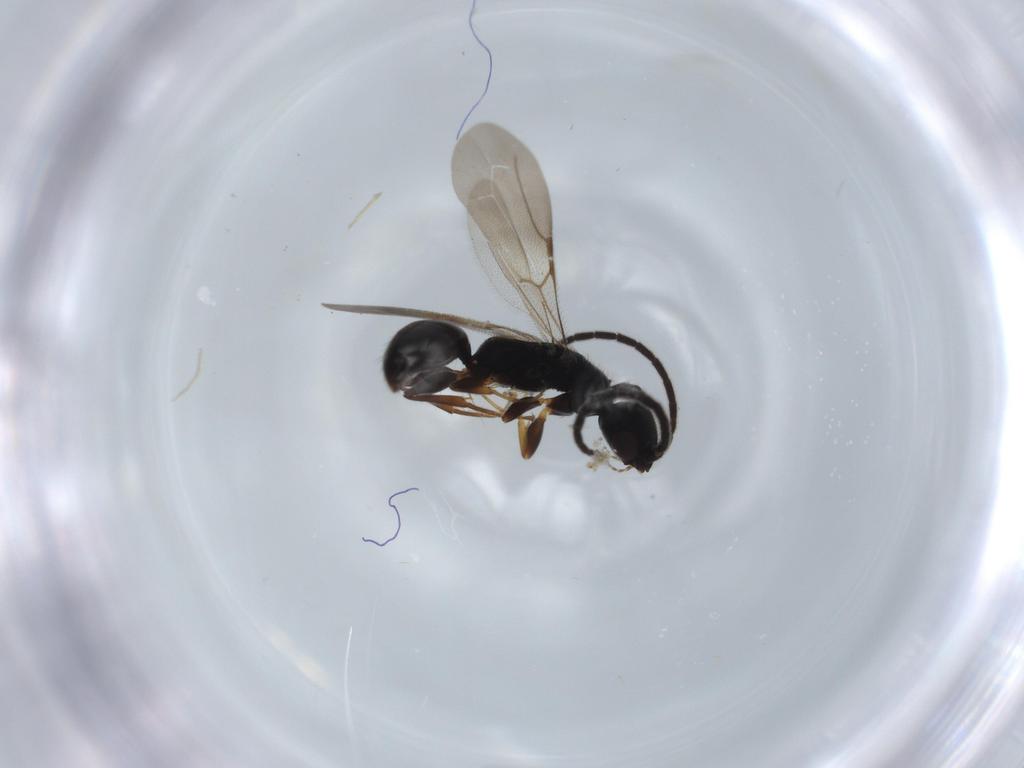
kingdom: Animalia
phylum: Arthropoda
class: Insecta
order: Hymenoptera
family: Bethylidae
